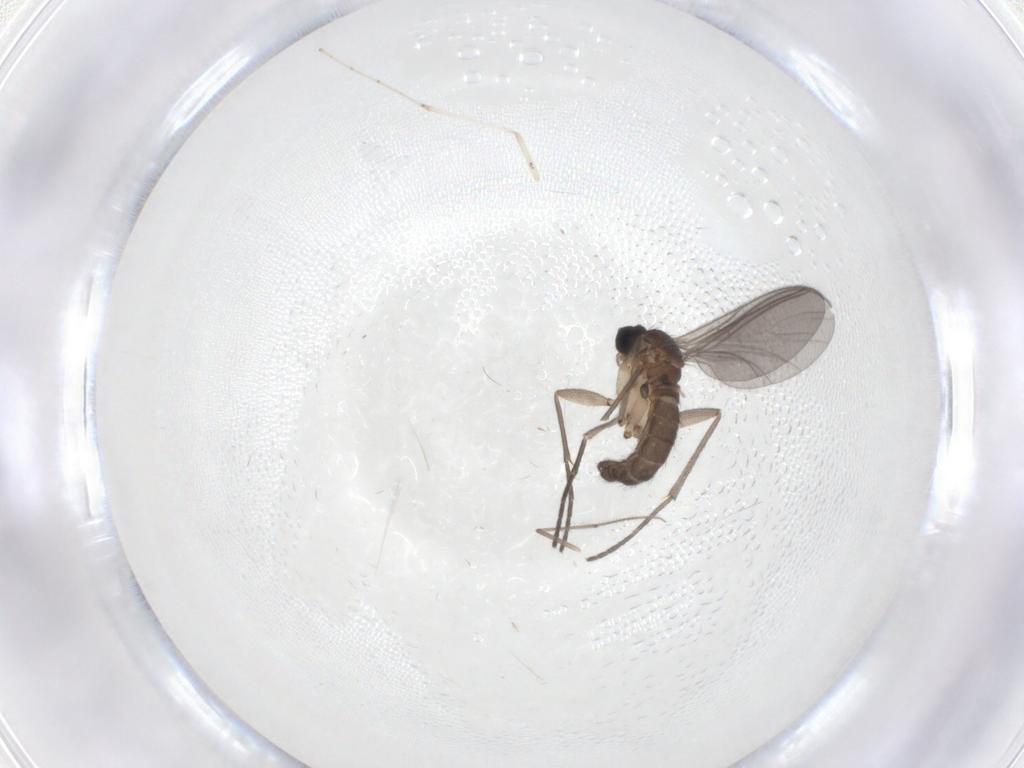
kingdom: Animalia
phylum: Arthropoda
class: Insecta
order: Diptera
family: Sciaridae
